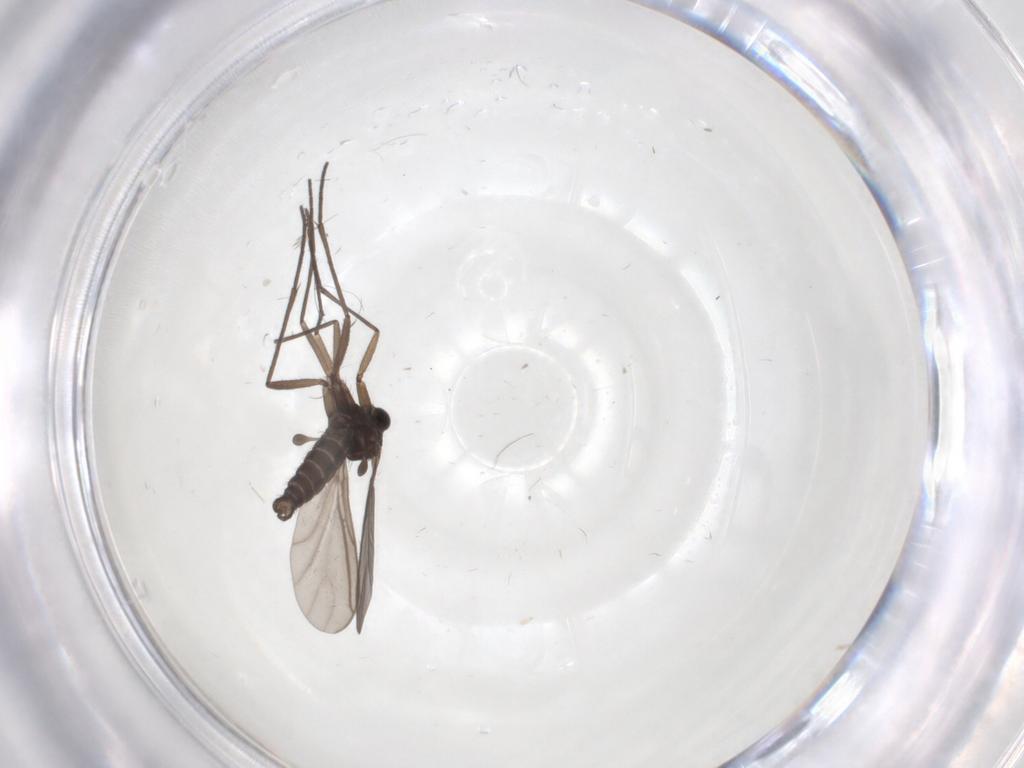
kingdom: Animalia
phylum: Arthropoda
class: Insecta
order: Diptera
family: Sciaridae
